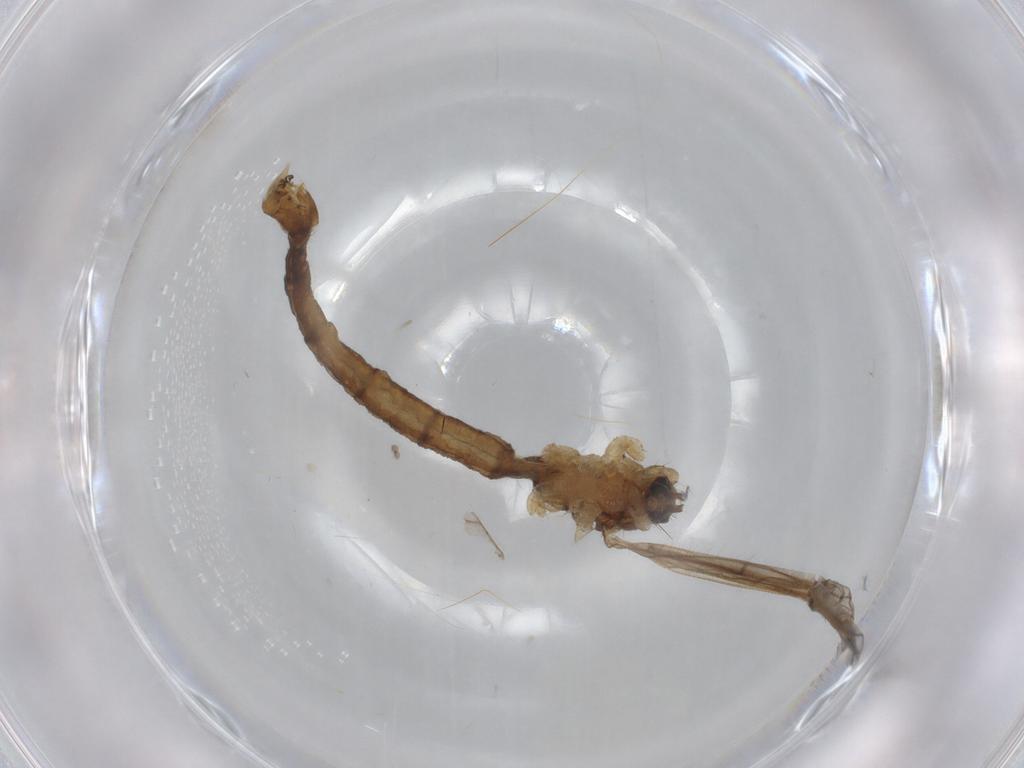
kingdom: Animalia
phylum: Arthropoda
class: Insecta
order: Diptera
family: Limoniidae
